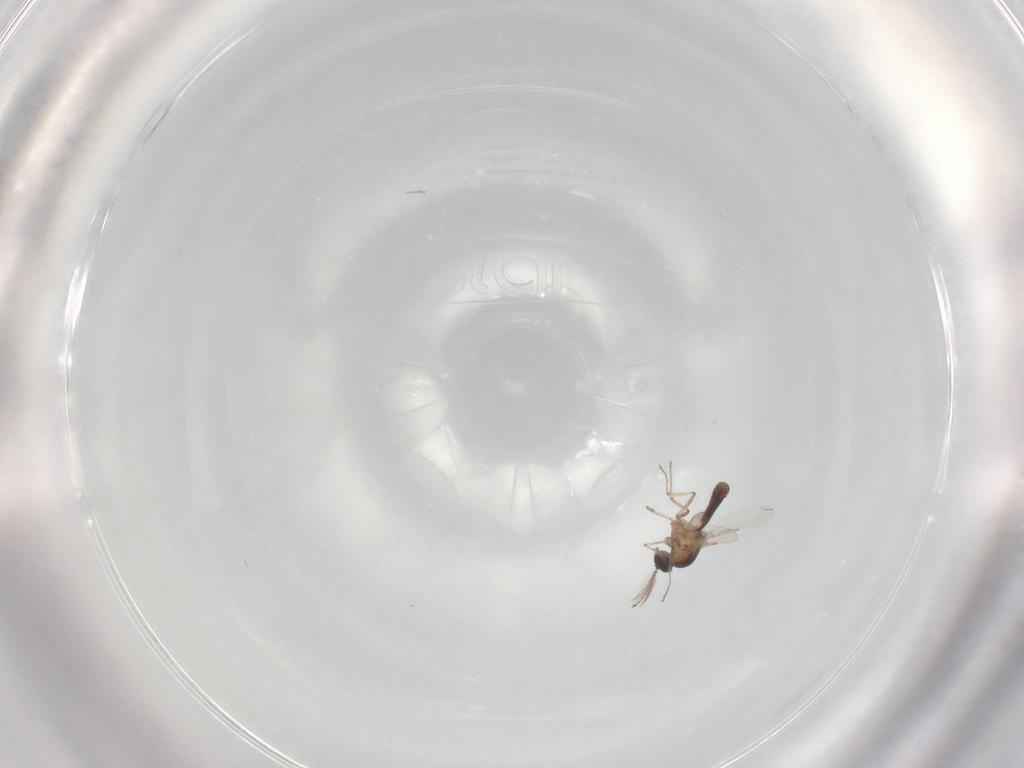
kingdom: Animalia
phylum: Arthropoda
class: Insecta
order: Diptera
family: Ceratopogonidae
